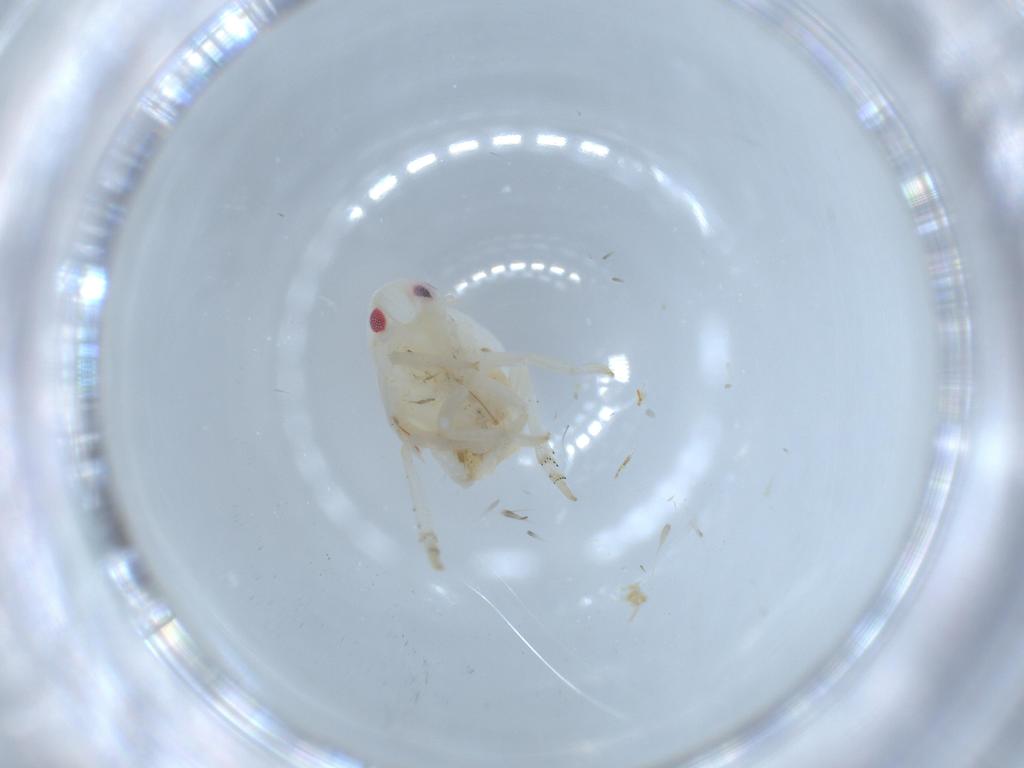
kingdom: Animalia
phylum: Arthropoda
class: Insecta
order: Hemiptera
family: Flatidae
